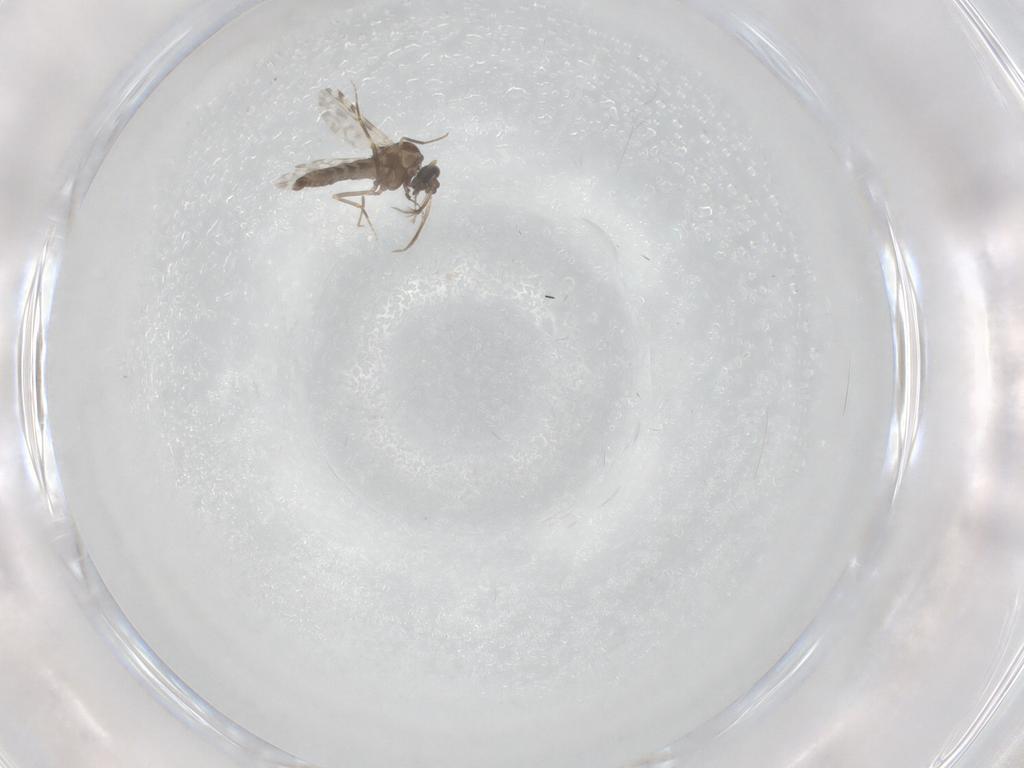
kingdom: Animalia
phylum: Arthropoda
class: Insecta
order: Diptera
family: Ceratopogonidae
